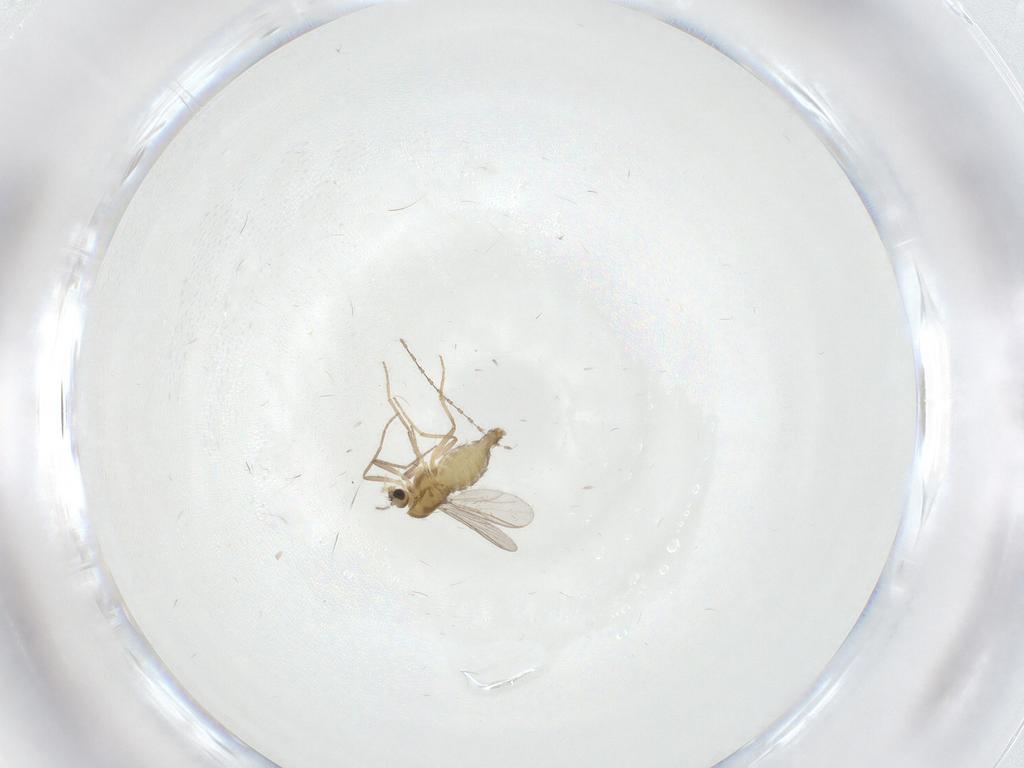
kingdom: Animalia
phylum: Arthropoda
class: Insecta
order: Diptera
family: Chironomidae
